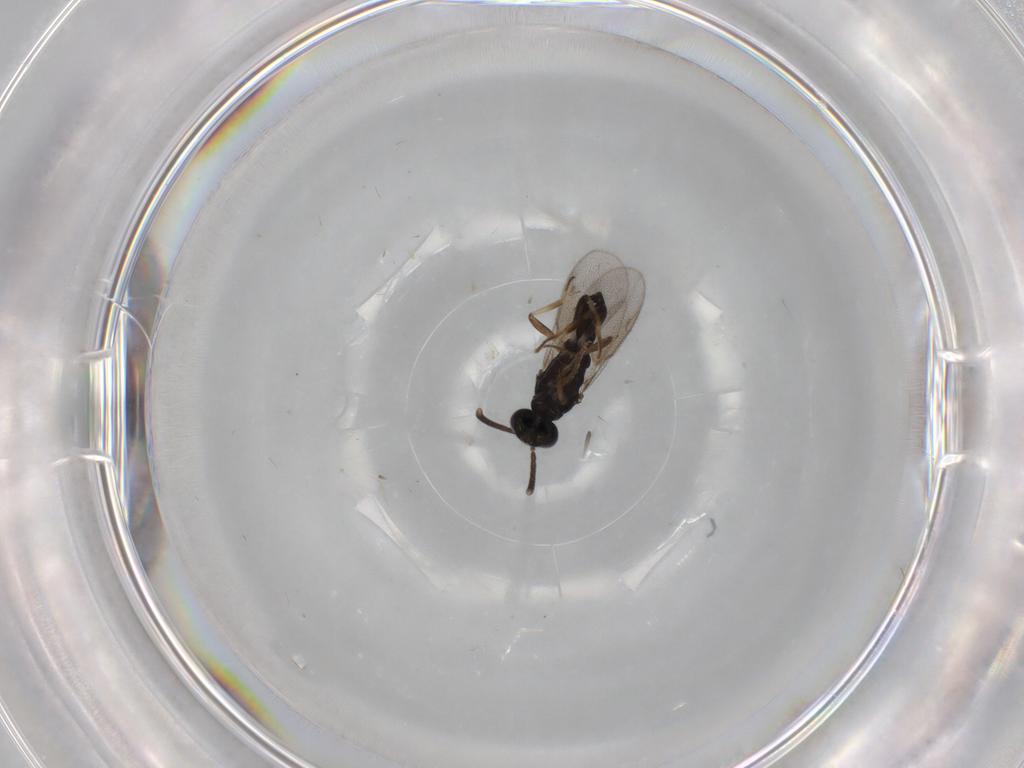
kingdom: Animalia
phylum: Arthropoda
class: Insecta
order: Hymenoptera
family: Eupelmidae
